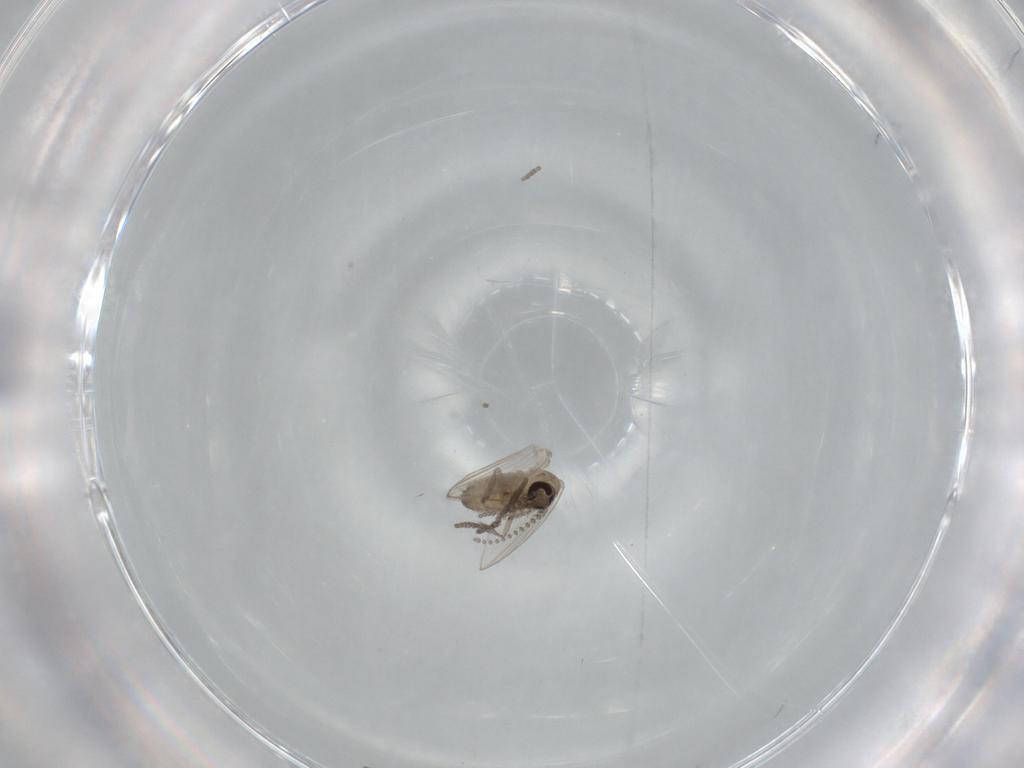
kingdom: Animalia
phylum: Arthropoda
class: Insecta
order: Diptera
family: Psychodidae
